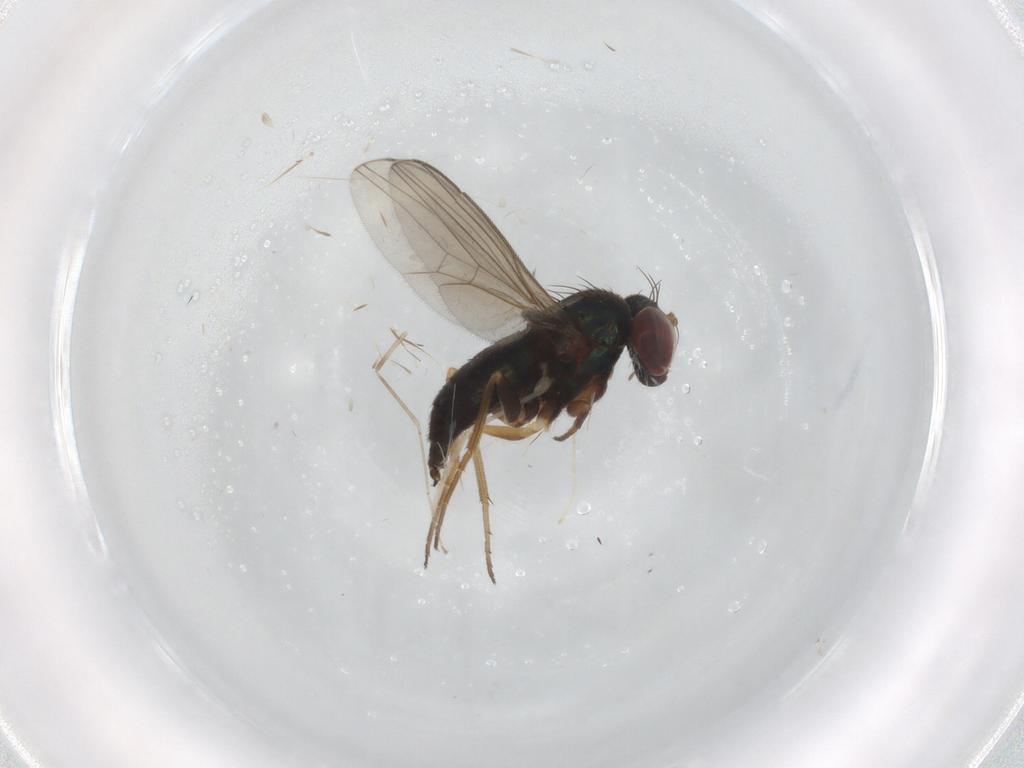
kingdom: Animalia
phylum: Arthropoda
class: Insecta
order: Diptera
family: Dolichopodidae
